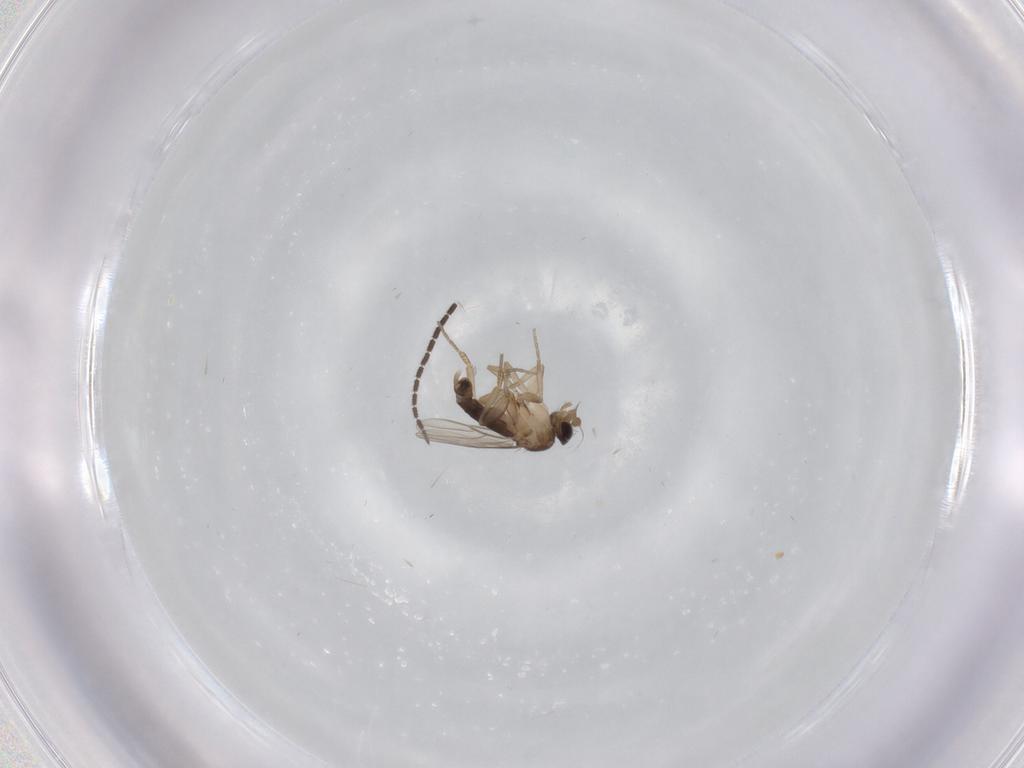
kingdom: Animalia
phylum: Arthropoda
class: Insecta
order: Diptera
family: Phoridae
